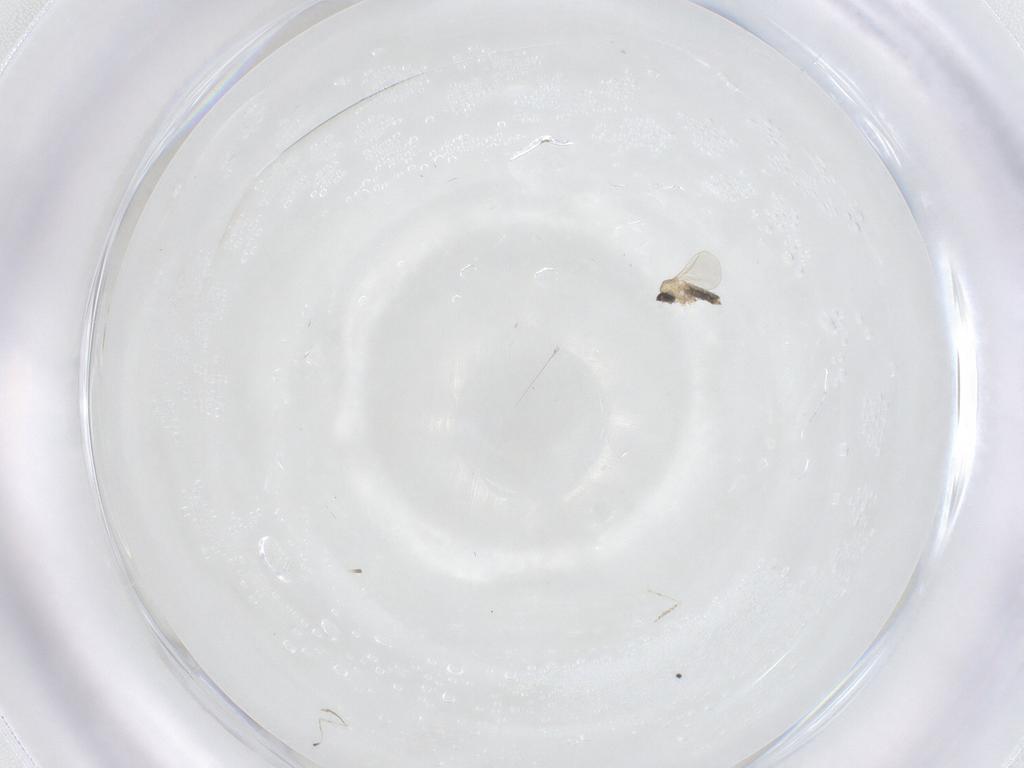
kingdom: Animalia
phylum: Arthropoda
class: Insecta
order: Diptera
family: Cecidomyiidae
